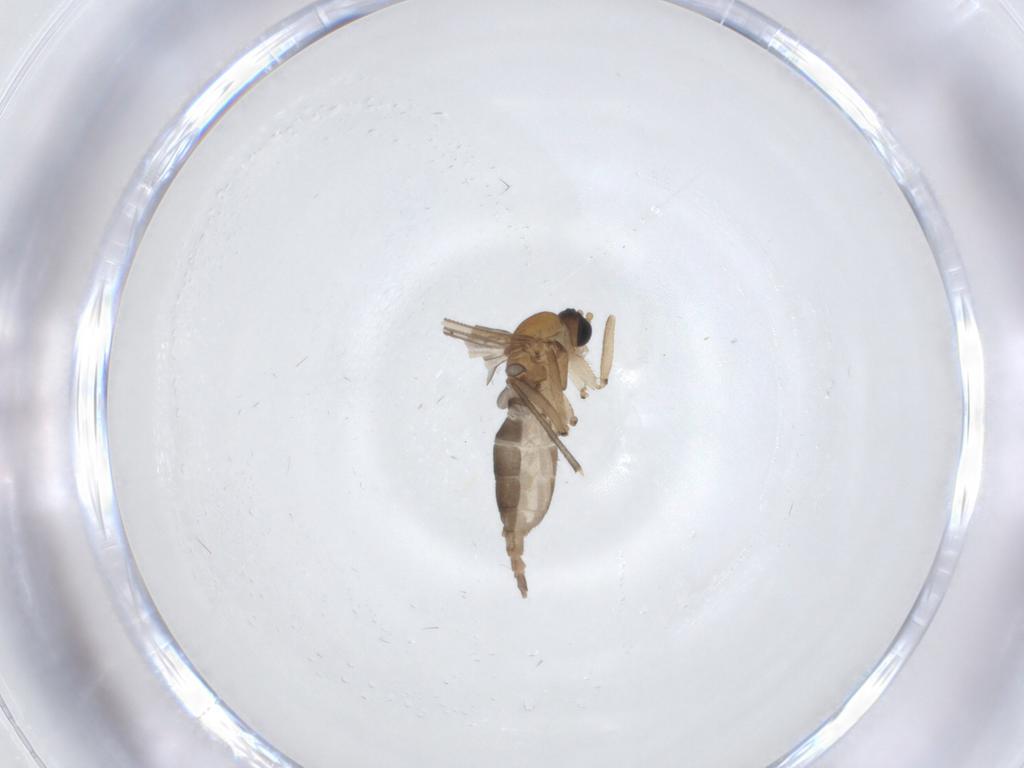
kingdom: Animalia
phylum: Arthropoda
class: Insecta
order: Diptera
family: Sciaridae
